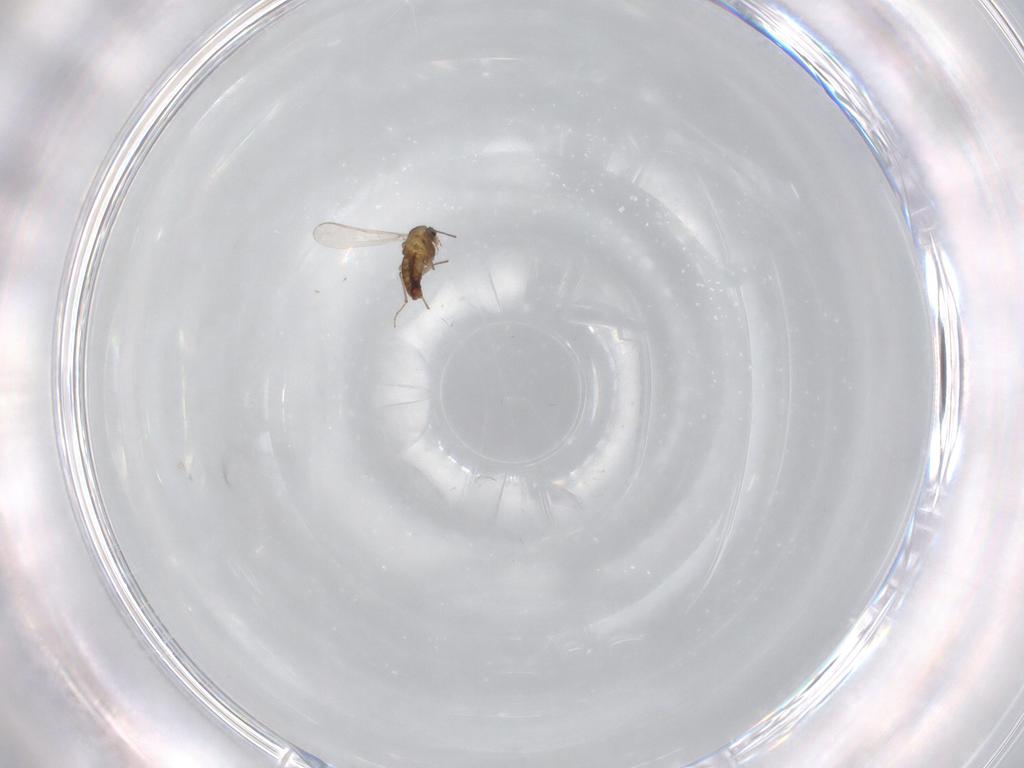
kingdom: Animalia
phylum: Arthropoda
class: Insecta
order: Diptera
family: Chironomidae
